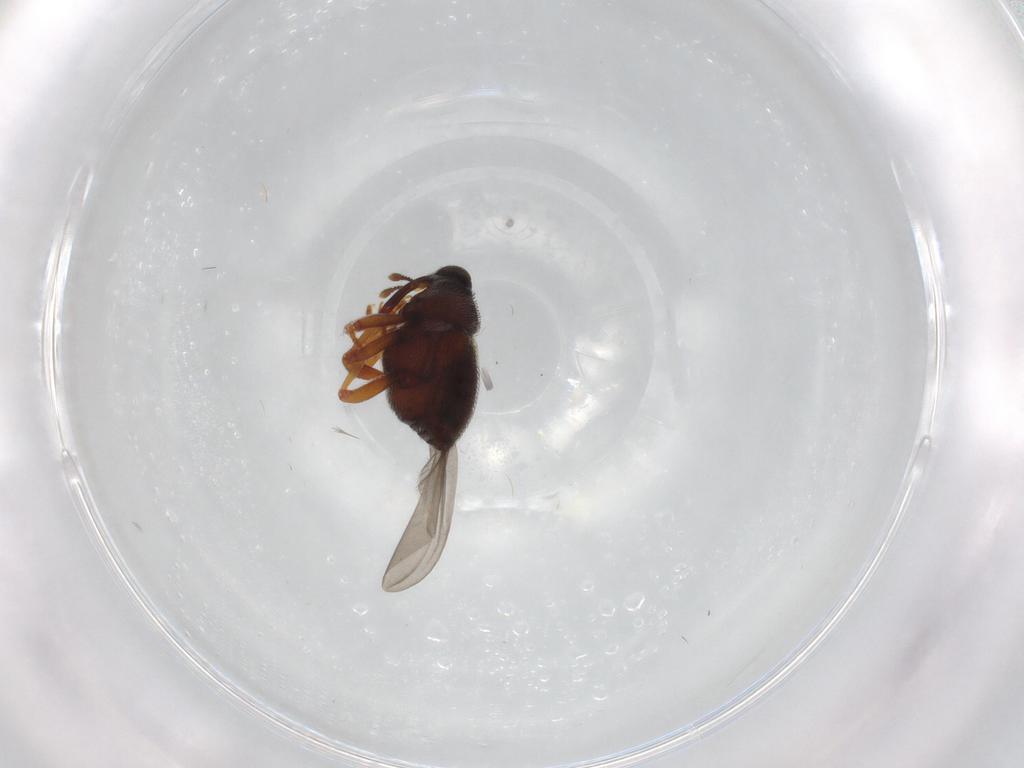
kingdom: Animalia
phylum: Arthropoda
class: Insecta
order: Coleoptera
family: Curculionidae
